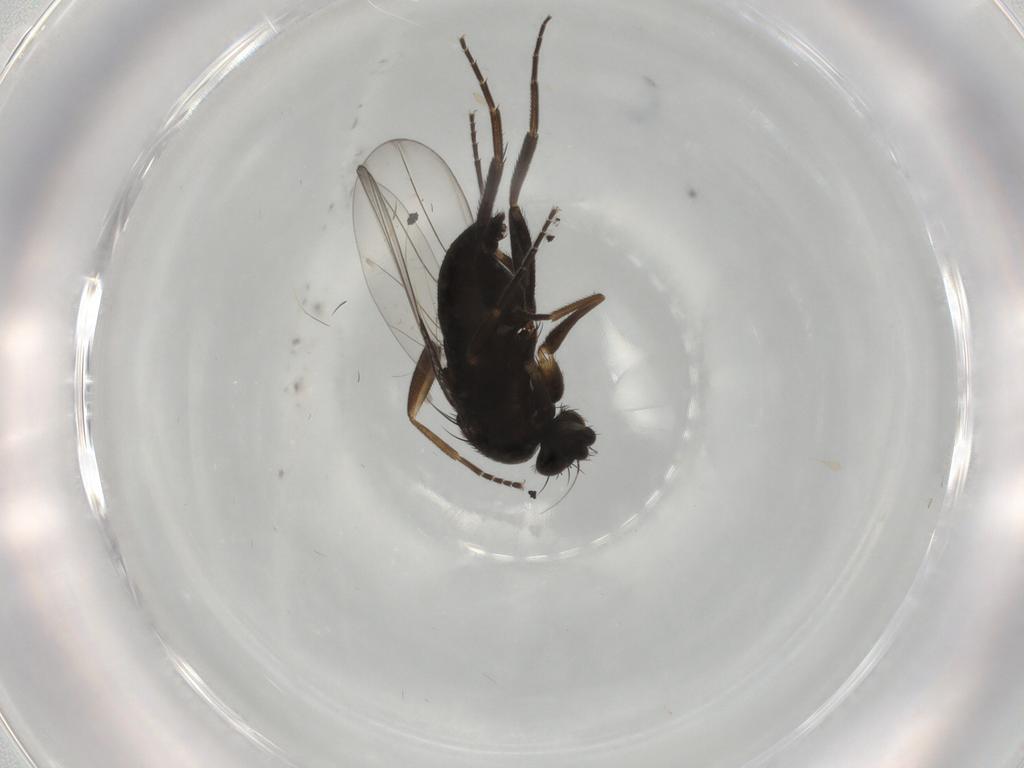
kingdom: Animalia
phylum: Arthropoda
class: Insecta
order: Diptera
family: Phoridae
